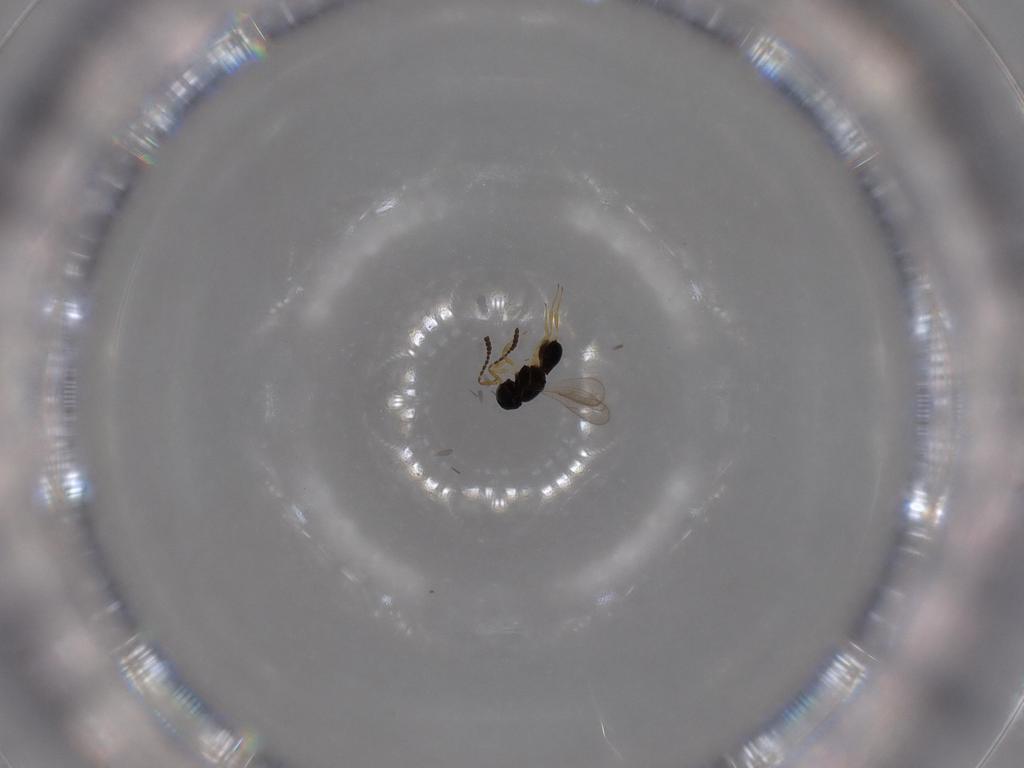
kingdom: Animalia
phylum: Arthropoda
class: Insecta
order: Hymenoptera
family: Scelionidae
